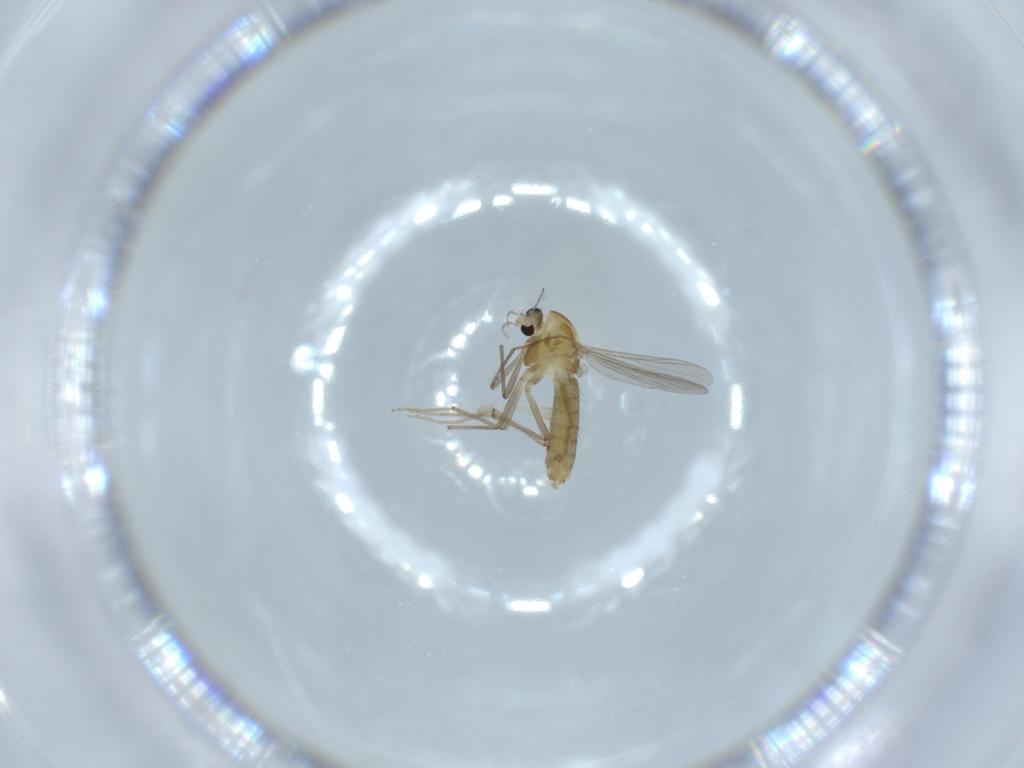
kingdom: Animalia
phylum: Arthropoda
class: Insecta
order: Diptera
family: Chironomidae
